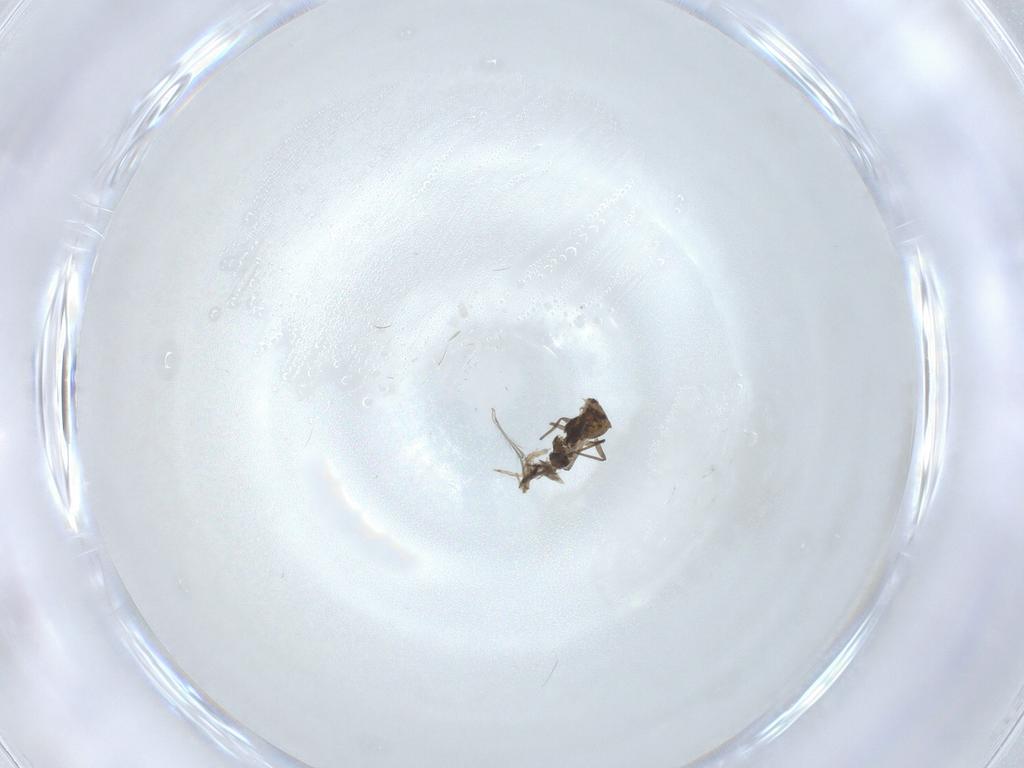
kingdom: Animalia
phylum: Arthropoda
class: Insecta
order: Diptera
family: Chironomidae
